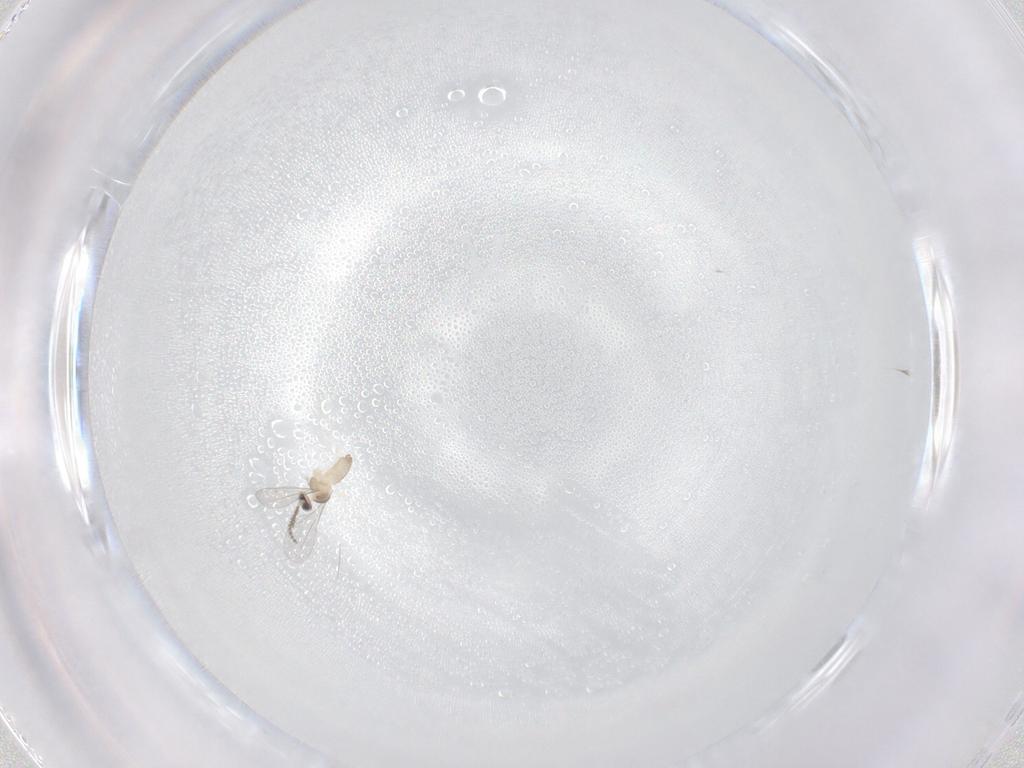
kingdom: Animalia
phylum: Arthropoda
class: Insecta
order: Diptera
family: Cecidomyiidae
